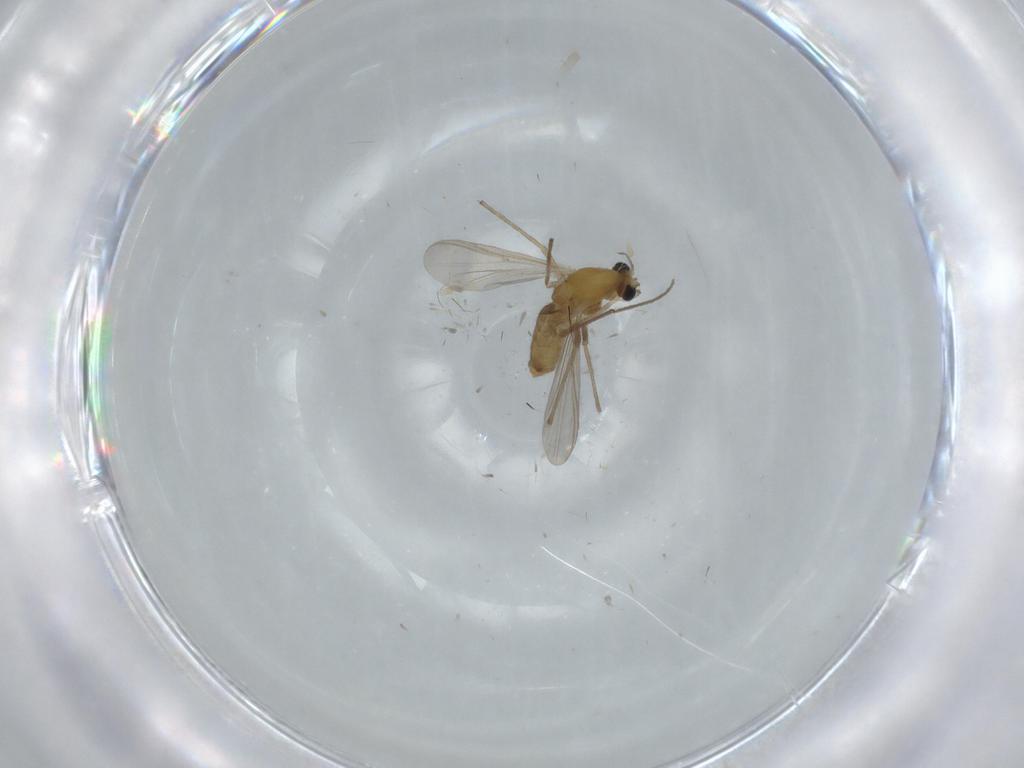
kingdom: Animalia
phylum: Arthropoda
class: Insecta
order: Diptera
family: Chironomidae
